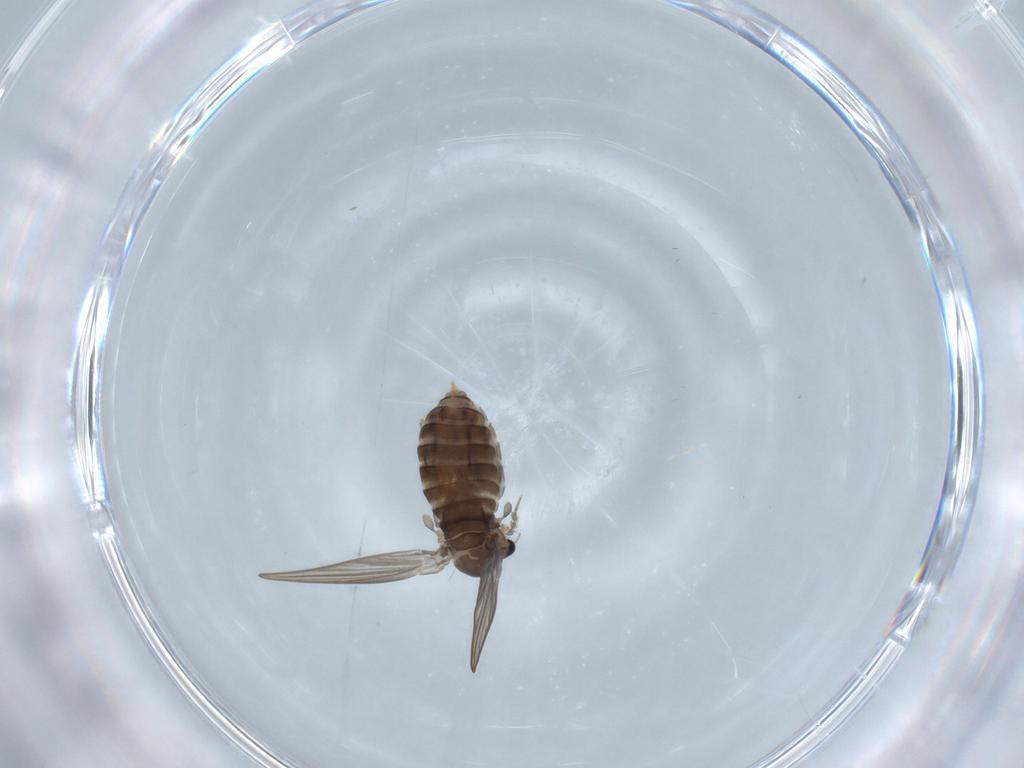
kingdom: Animalia
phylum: Arthropoda
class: Insecta
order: Diptera
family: Psychodidae
